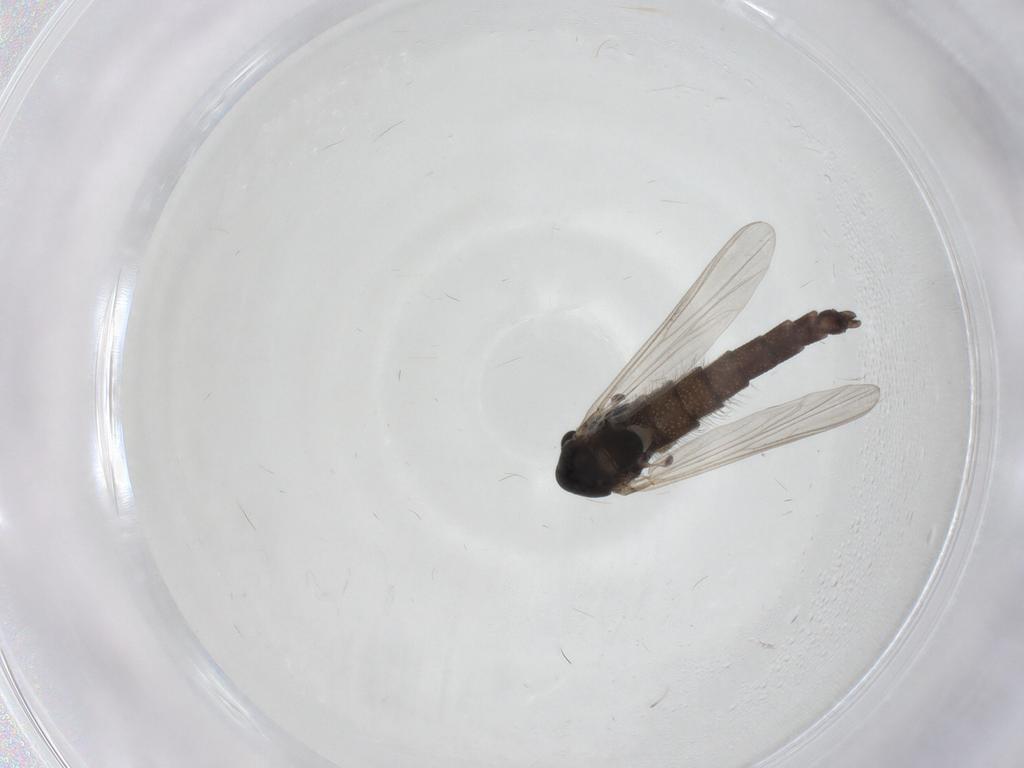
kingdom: Animalia
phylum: Arthropoda
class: Insecta
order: Diptera
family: Chironomidae
